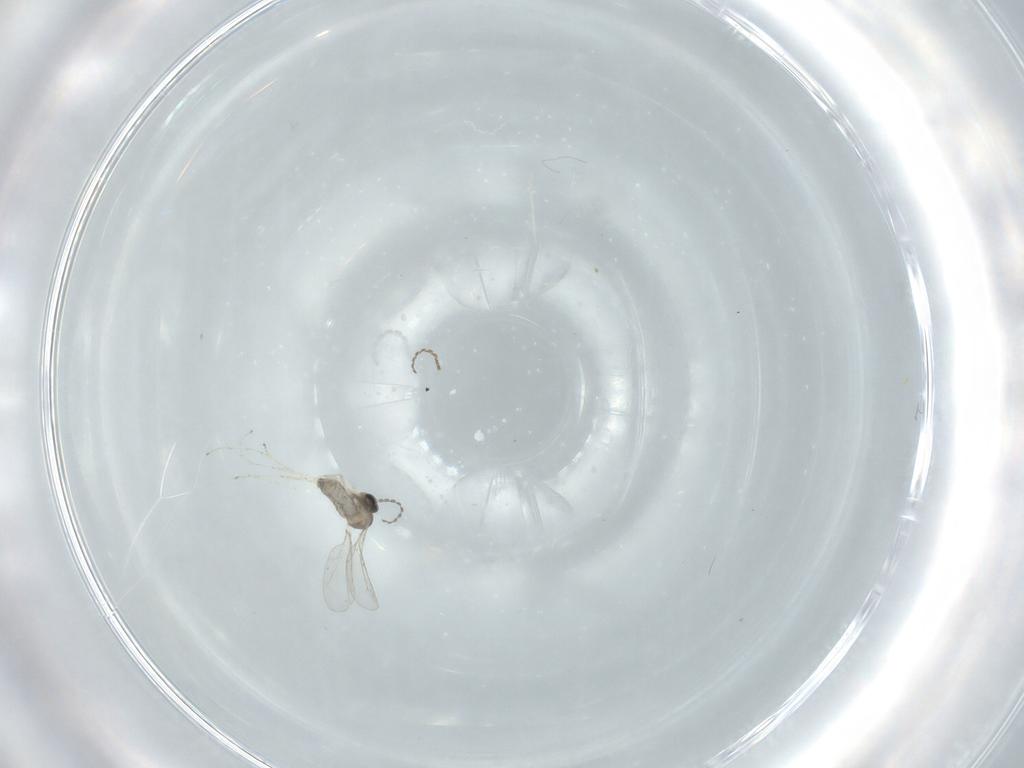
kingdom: Animalia
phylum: Arthropoda
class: Insecta
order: Diptera
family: Cecidomyiidae
